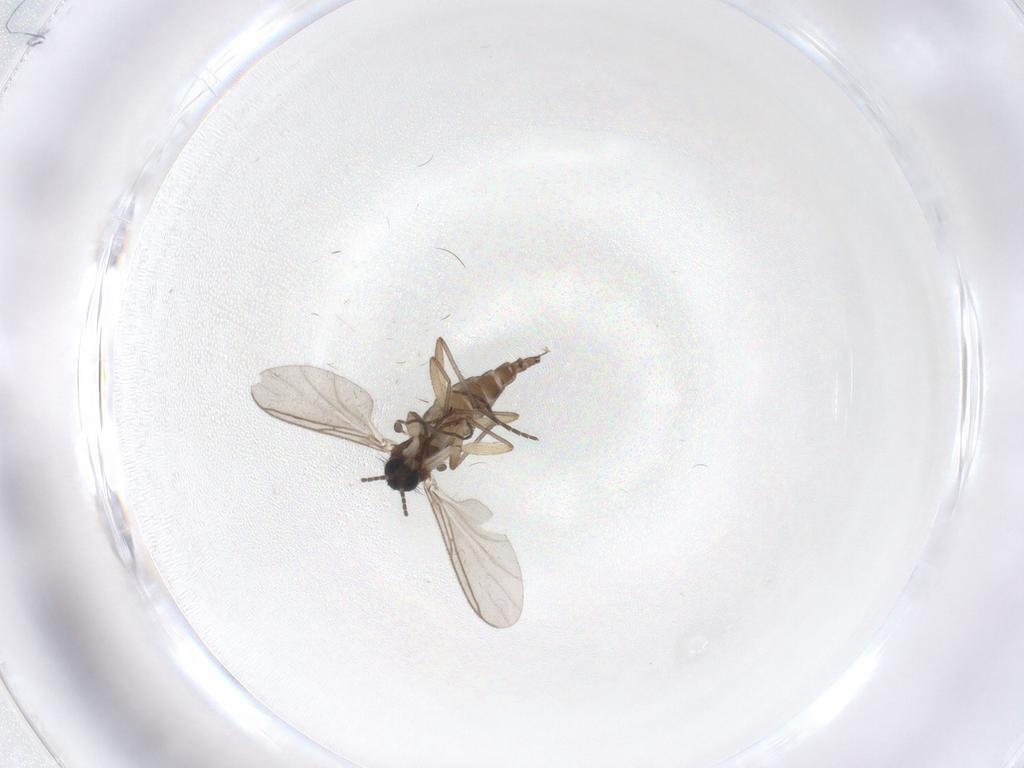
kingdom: Animalia
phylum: Arthropoda
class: Insecta
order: Diptera
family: Sciaridae
